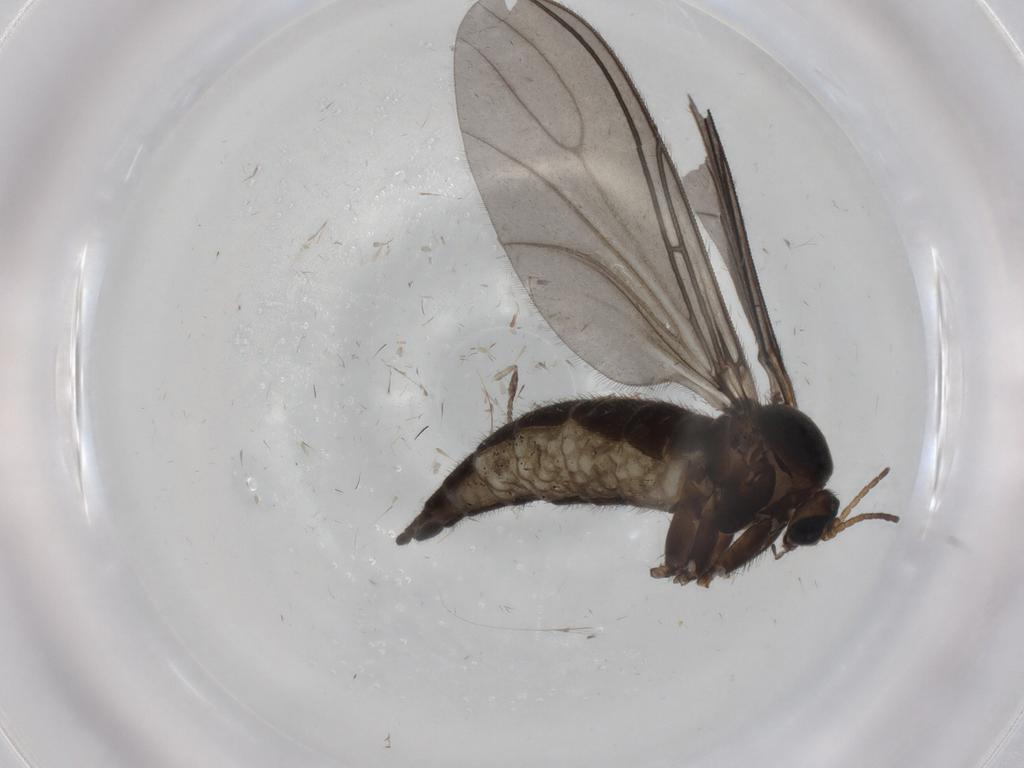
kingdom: Animalia
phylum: Arthropoda
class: Insecta
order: Diptera
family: Sciaridae
